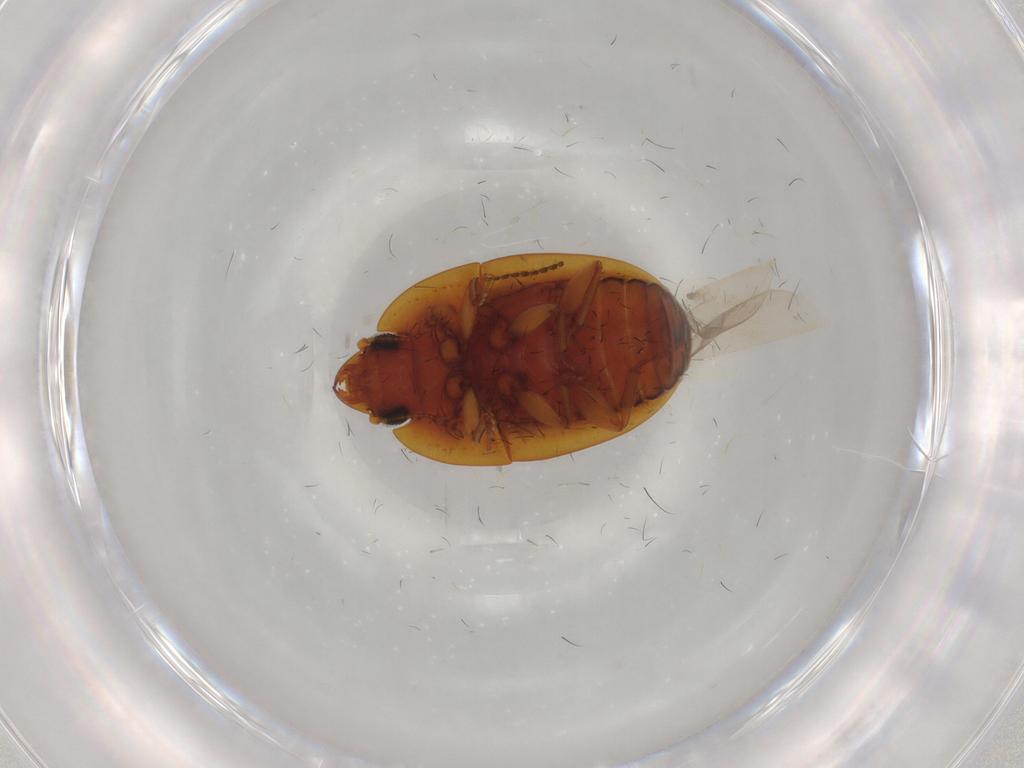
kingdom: Animalia
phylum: Arthropoda
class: Insecta
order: Coleoptera
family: Nitidulidae
